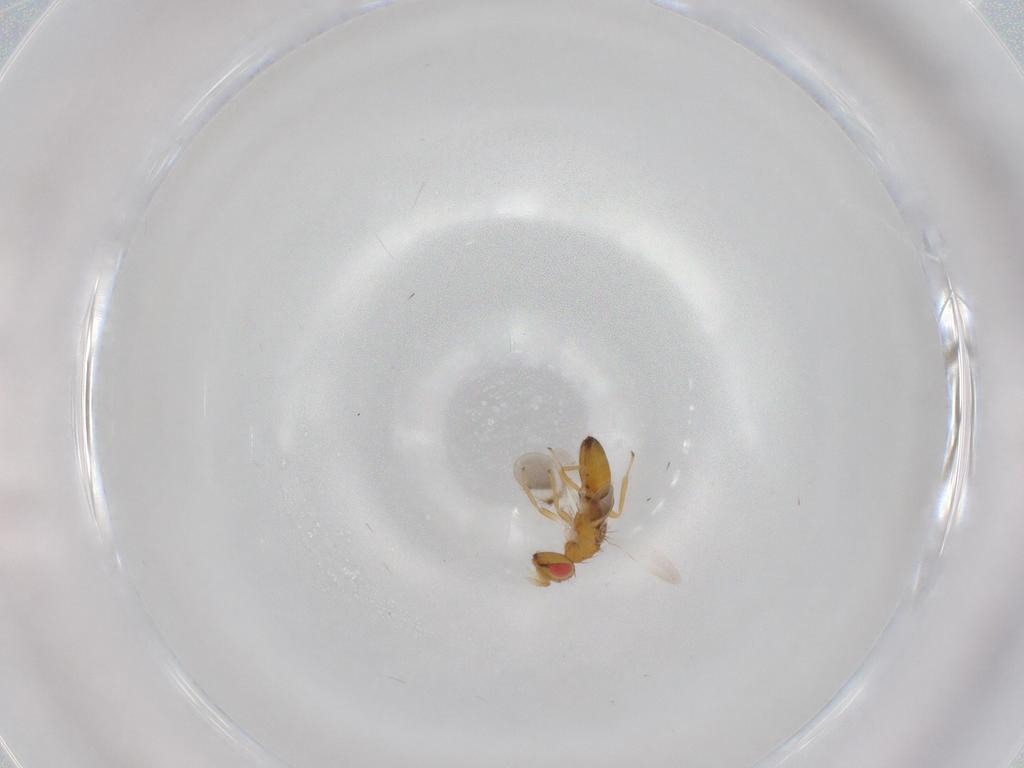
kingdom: Animalia
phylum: Arthropoda
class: Insecta
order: Hymenoptera
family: Eulophidae
